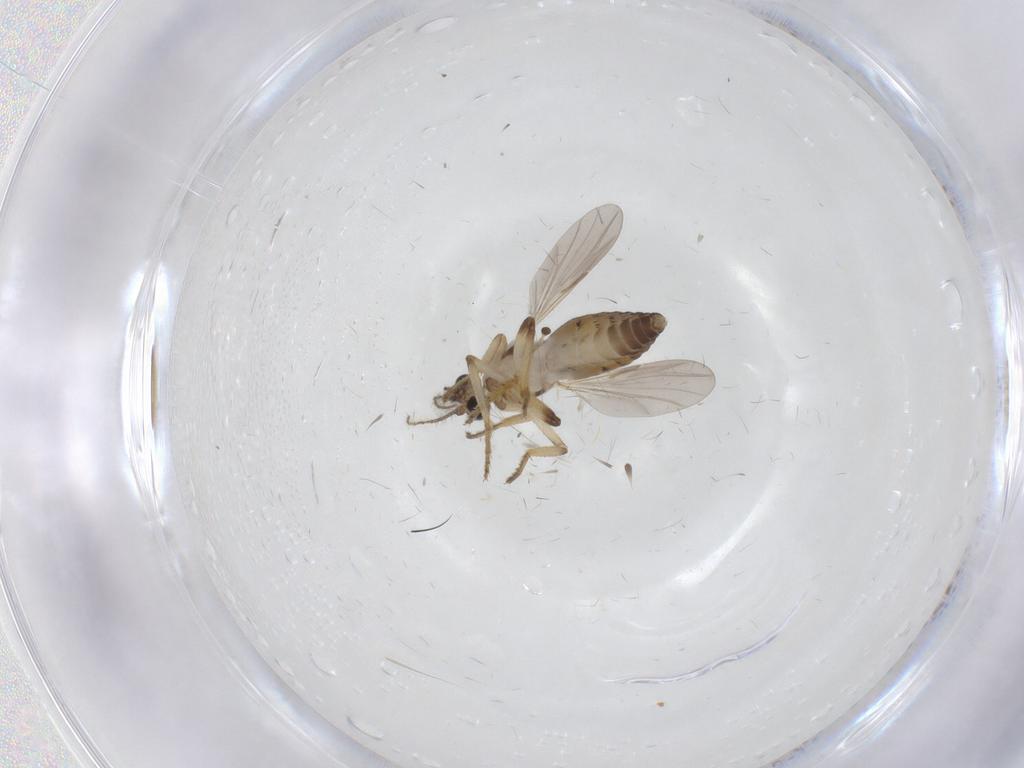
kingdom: Animalia
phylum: Arthropoda
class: Insecta
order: Diptera
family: Ceratopogonidae
